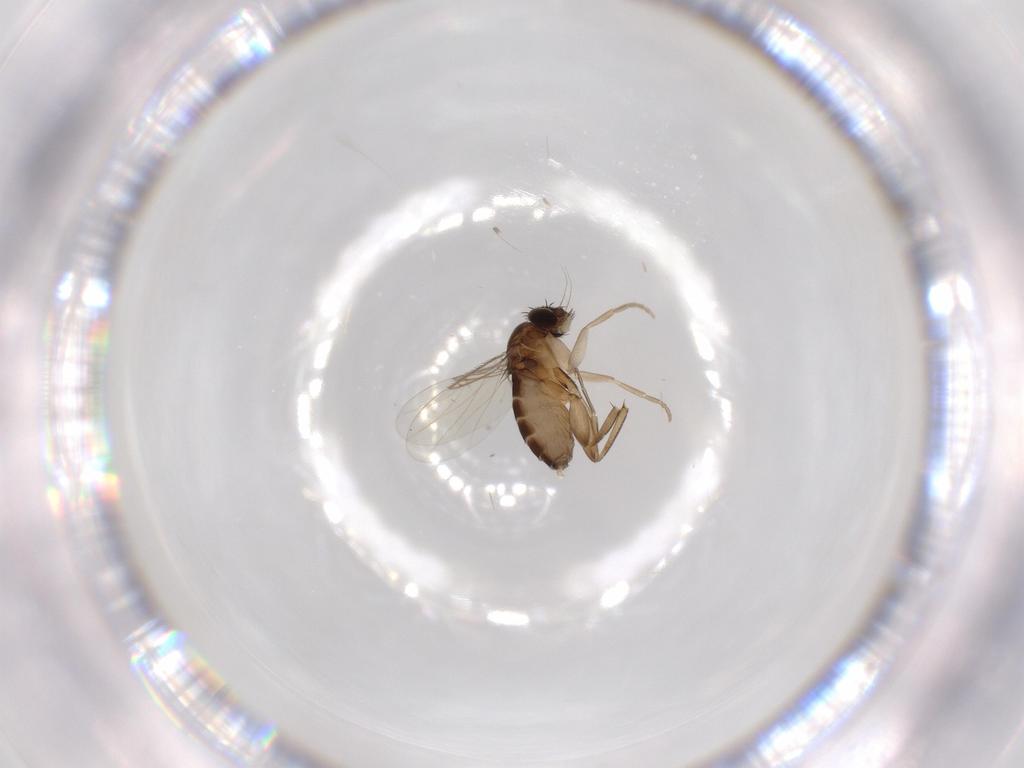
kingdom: Animalia
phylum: Arthropoda
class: Insecta
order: Diptera
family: Phoridae
